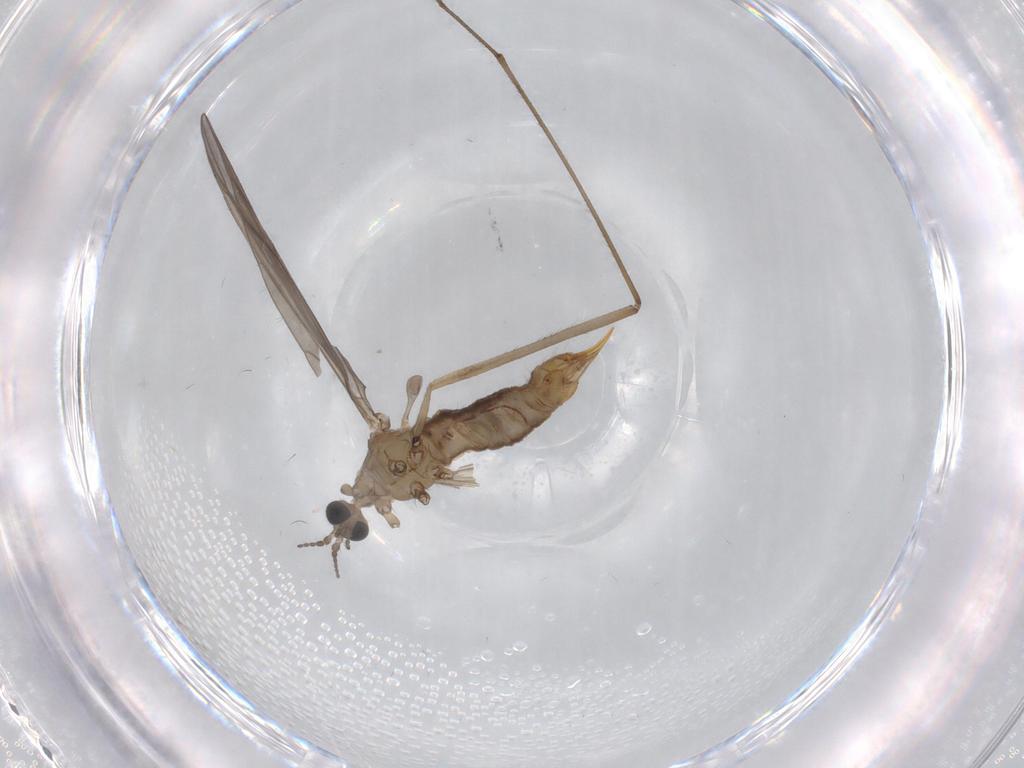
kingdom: Animalia
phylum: Arthropoda
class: Insecta
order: Diptera
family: Limoniidae
